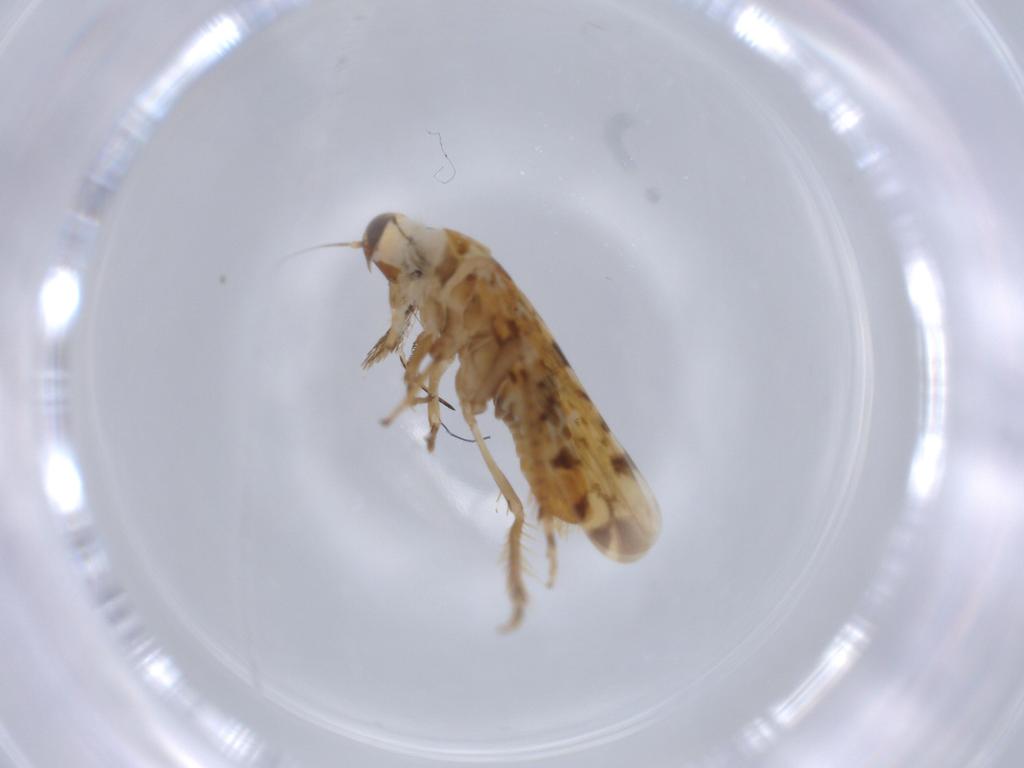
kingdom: Animalia
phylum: Arthropoda
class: Insecta
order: Hemiptera
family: Cicadellidae
